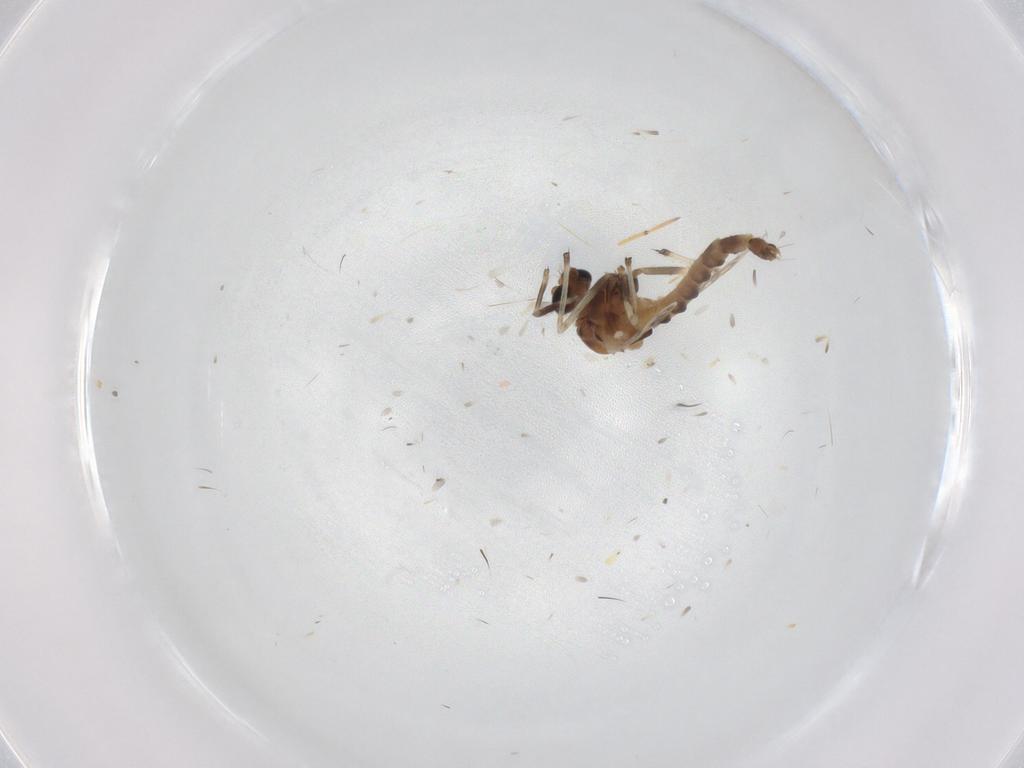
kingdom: Animalia
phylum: Arthropoda
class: Insecta
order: Diptera
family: Chironomidae
